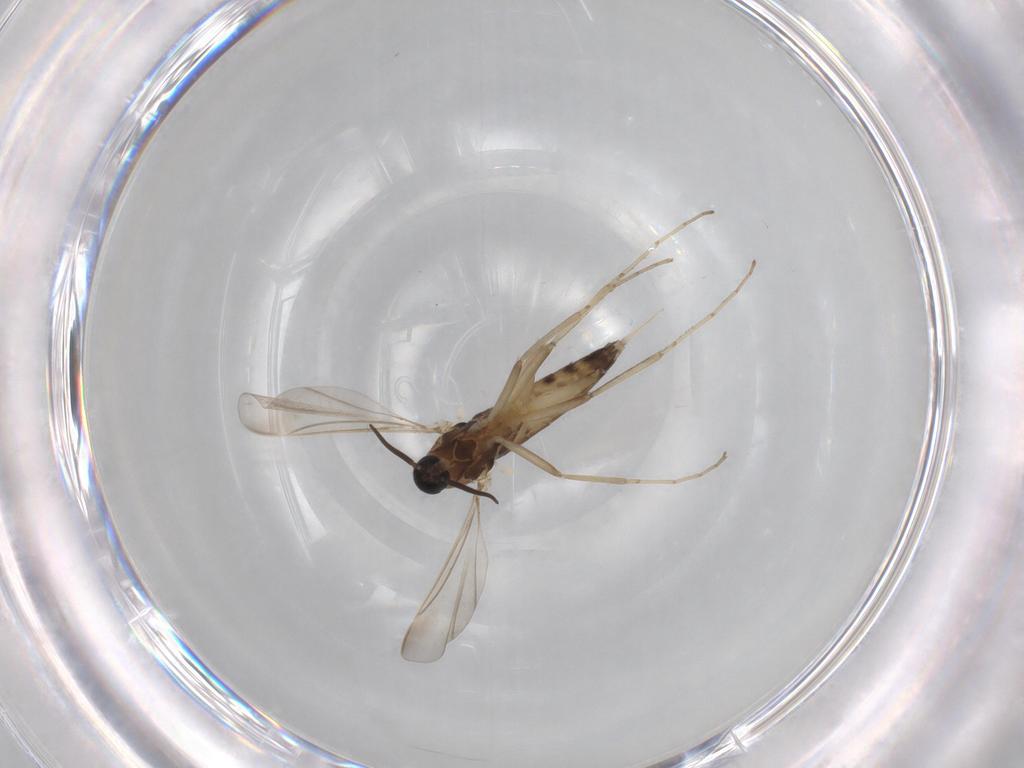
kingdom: Animalia
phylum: Arthropoda
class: Insecta
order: Diptera
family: Cecidomyiidae
